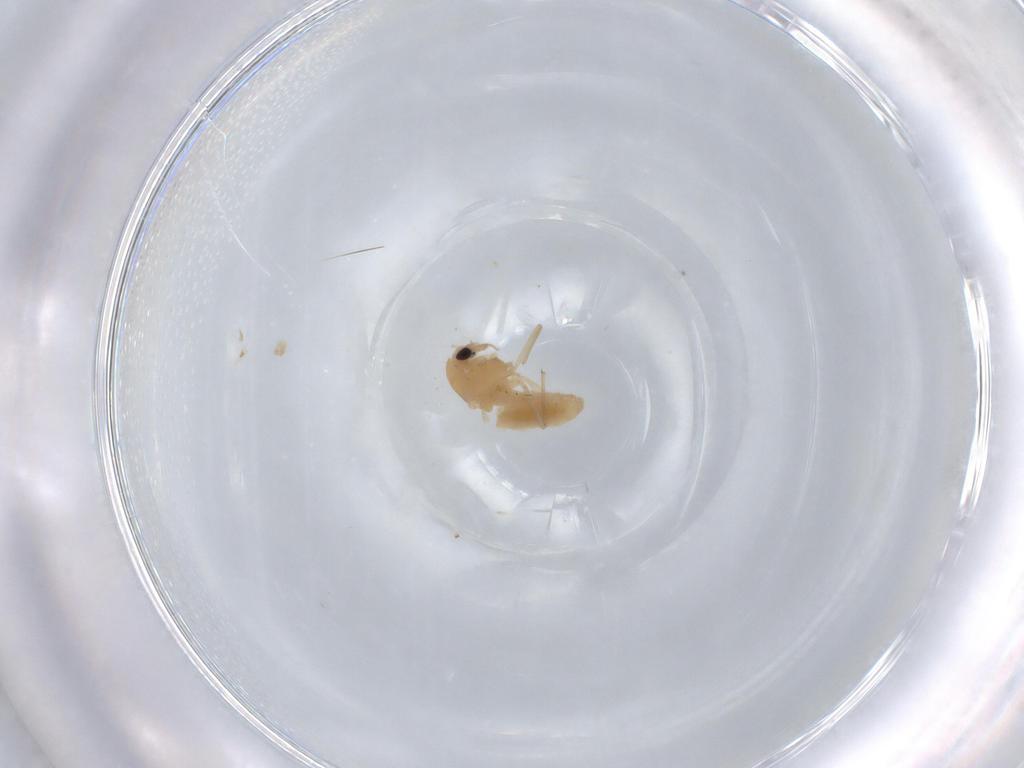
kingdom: Animalia
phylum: Arthropoda
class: Insecta
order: Diptera
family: Chironomidae
